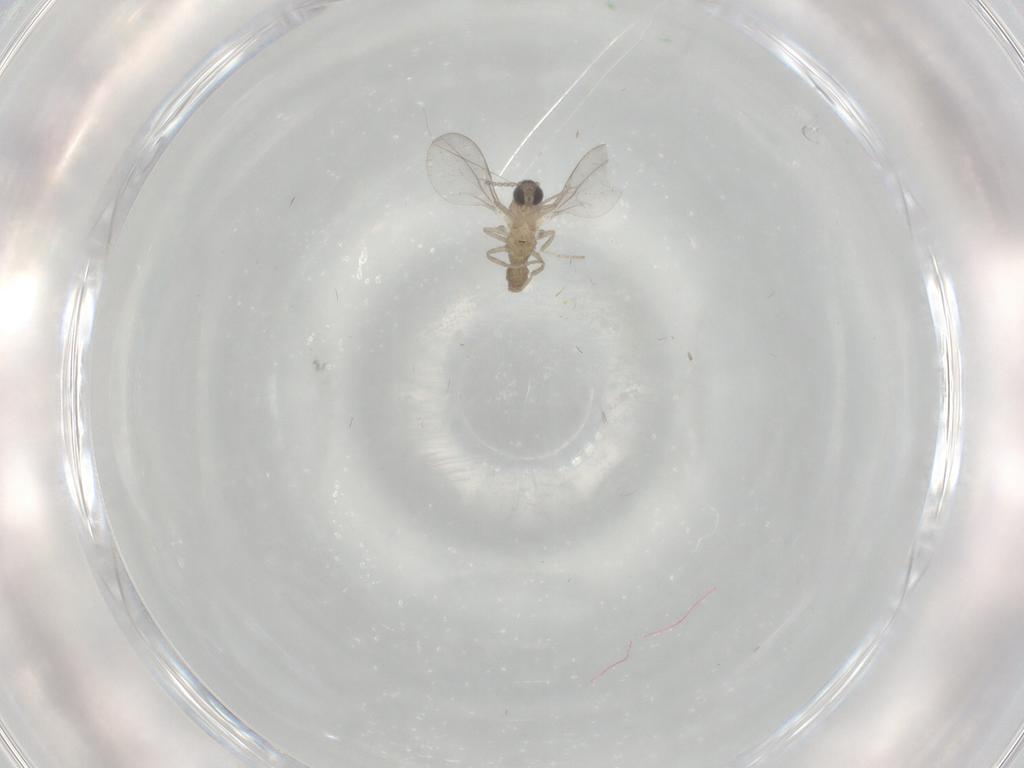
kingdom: Animalia
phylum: Arthropoda
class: Insecta
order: Diptera
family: Cecidomyiidae
